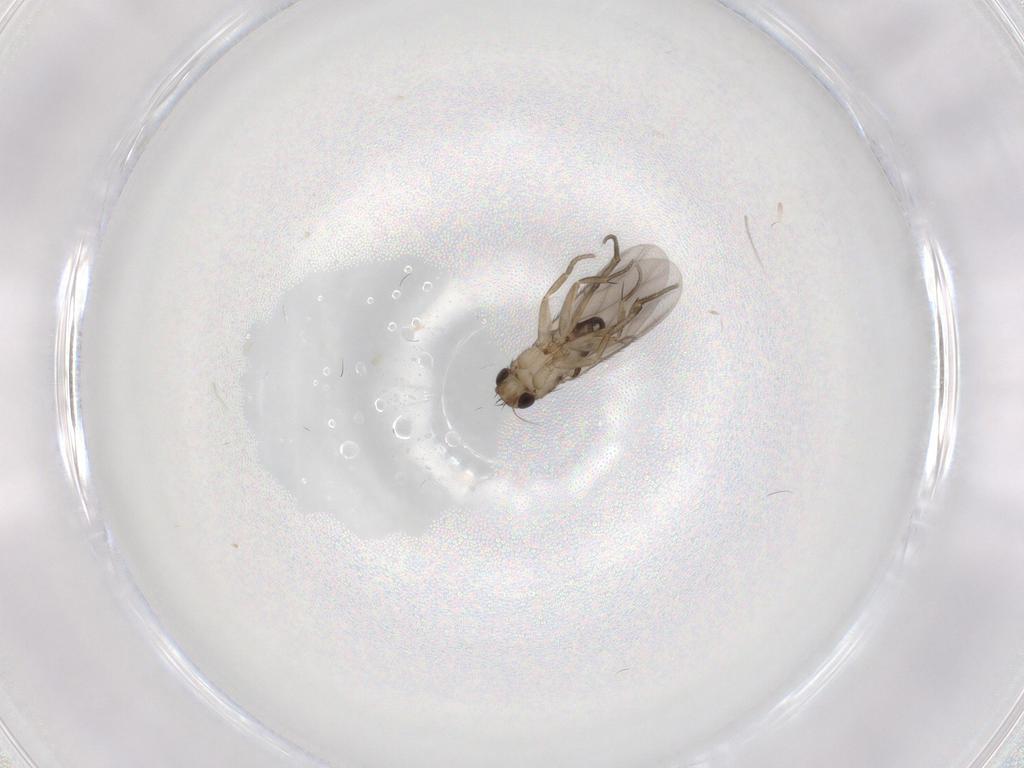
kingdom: Animalia
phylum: Arthropoda
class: Insecta
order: Diptera
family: Phoridae
